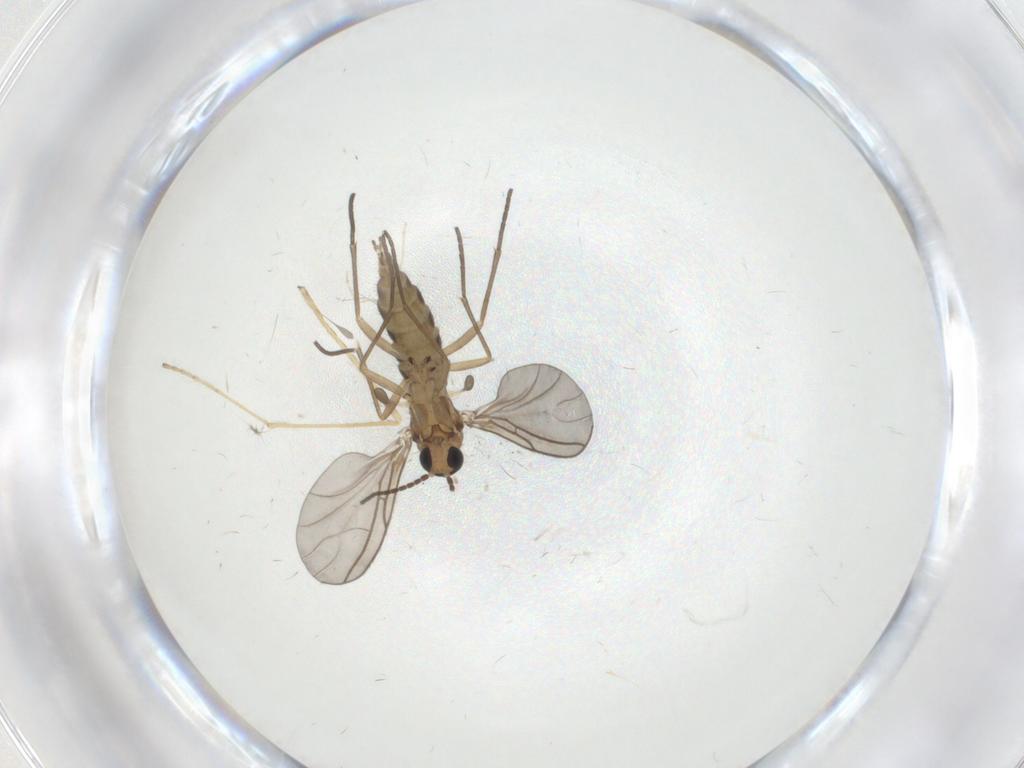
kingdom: Animalia
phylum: Arthropoda
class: Insecta
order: Diptera
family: Sciaridae
